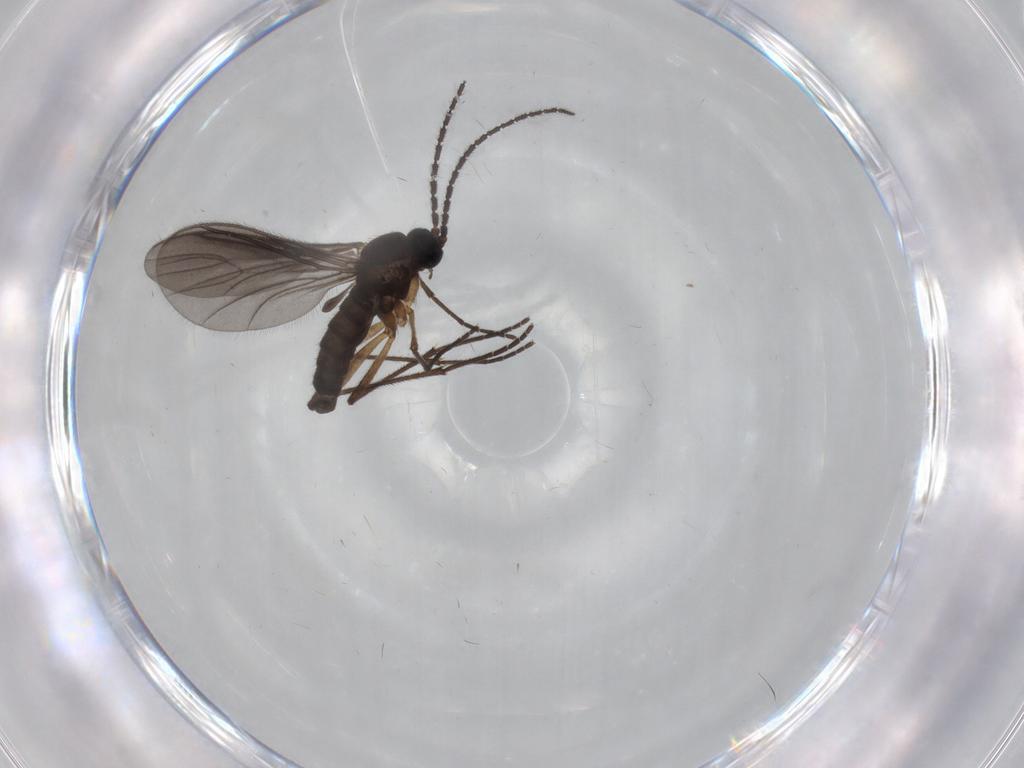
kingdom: Animalia
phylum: Arthropoda
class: Insecta
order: Diptera
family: Sciaridae
